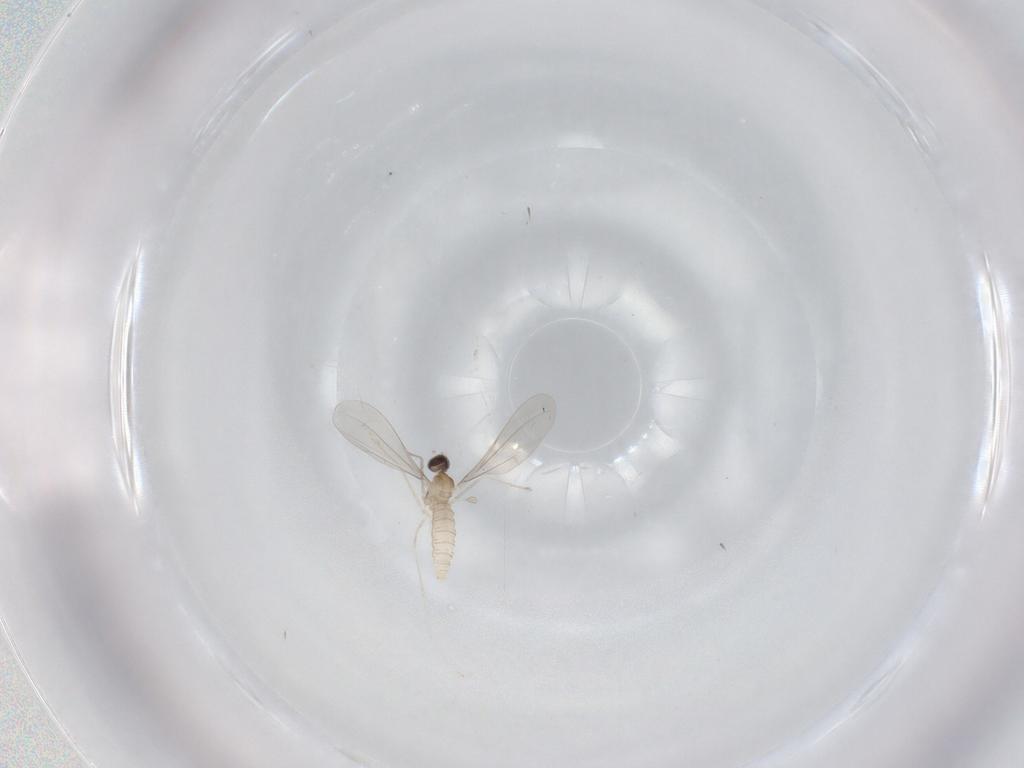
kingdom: Animalia
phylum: Arthropoda
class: Insecta
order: Diptera
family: Cecidomyiidae
